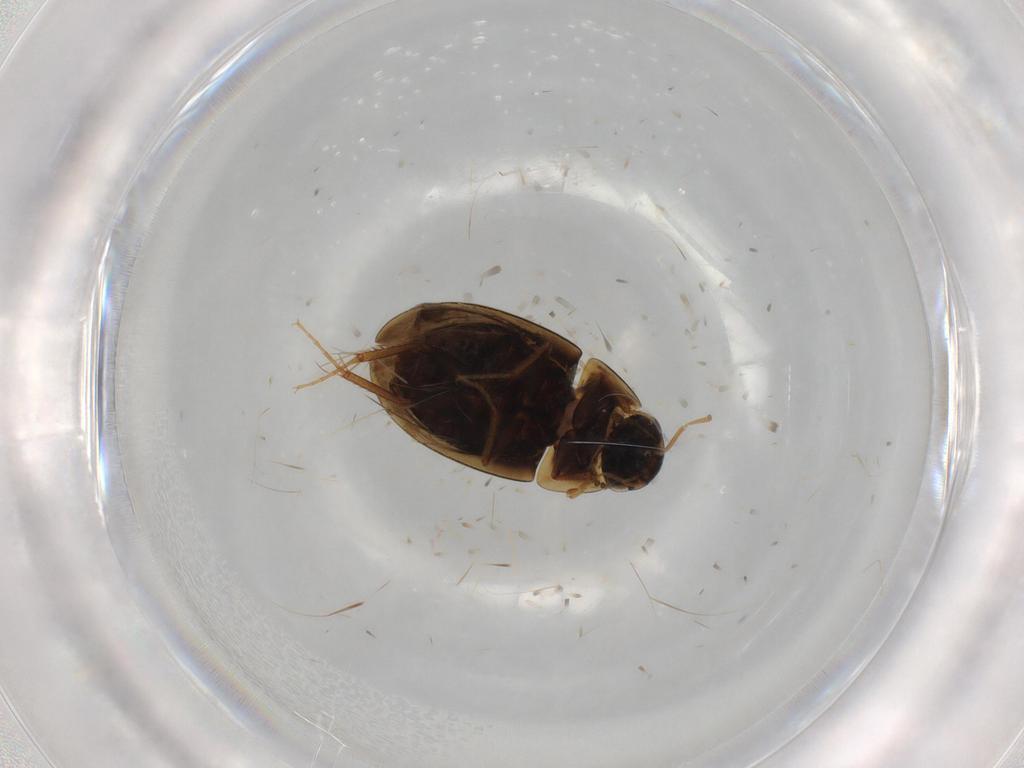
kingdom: Animalia
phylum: Arthropoda
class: Insecta
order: Coleoptera
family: Hydrophilidae
